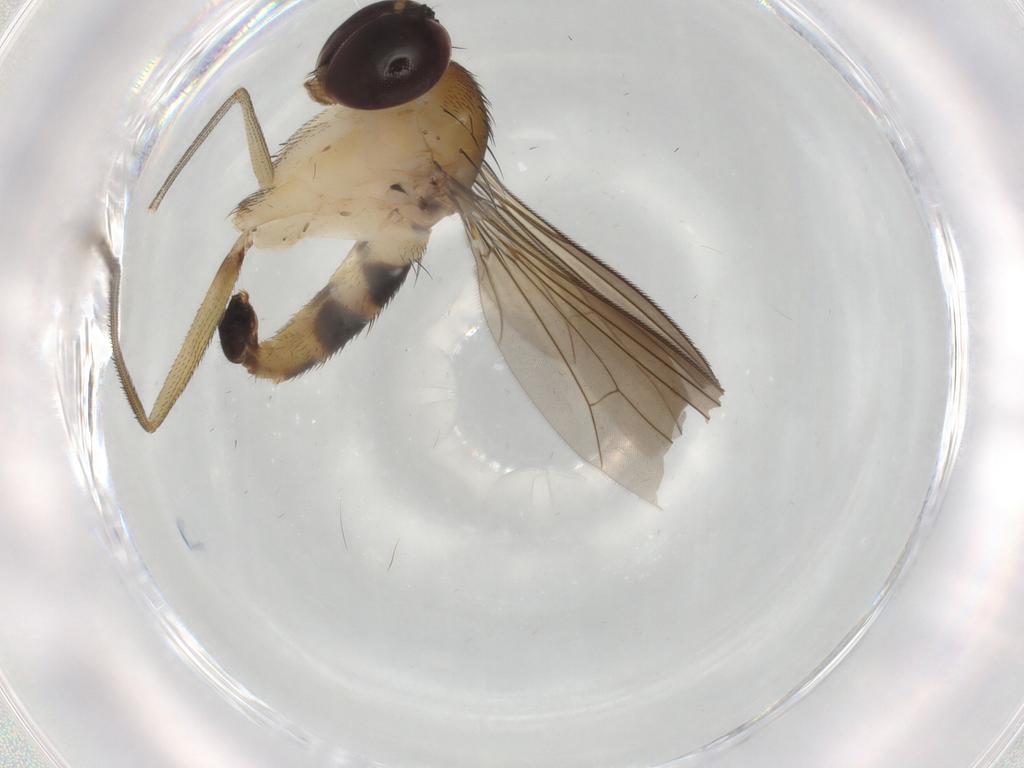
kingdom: Animalia
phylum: Arthropoda
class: Insecta
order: Diptera
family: Dolichopodidae
